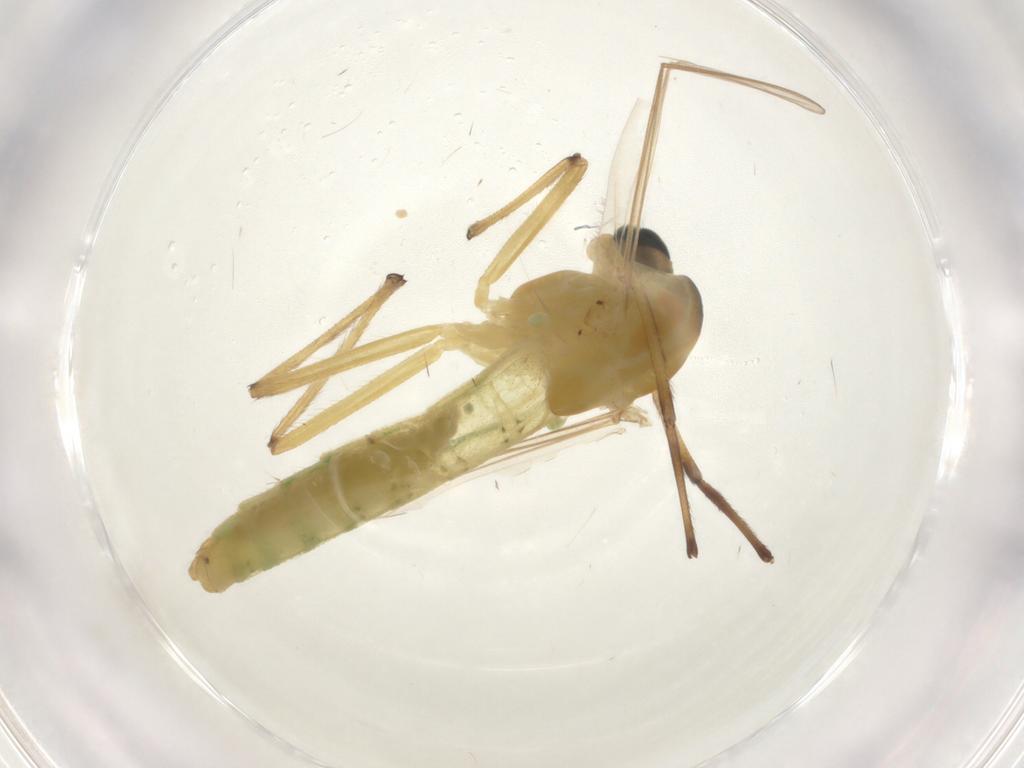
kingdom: Animalia
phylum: Arthropoda
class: Insecta
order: Diptera
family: Chironomidae
